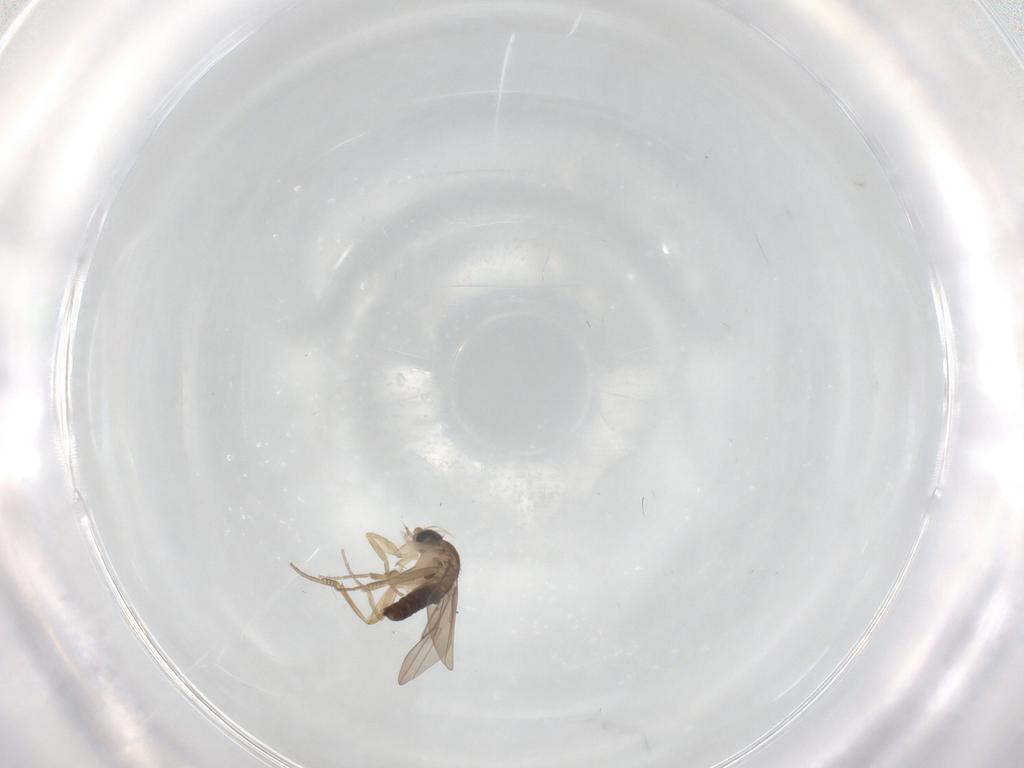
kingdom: Animalia
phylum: Arthropoda
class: Insecta
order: Diptera
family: Phoridae
